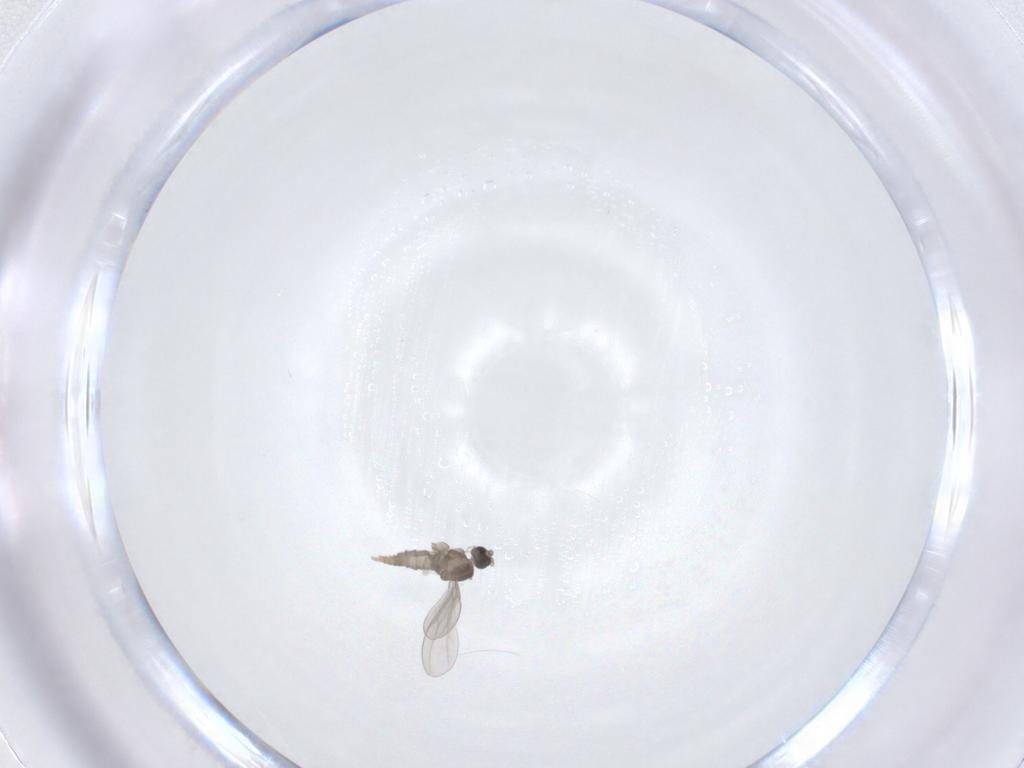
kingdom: Animalia
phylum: Arthropoda
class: Insecta
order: Diptera
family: Cecidomyiidae
